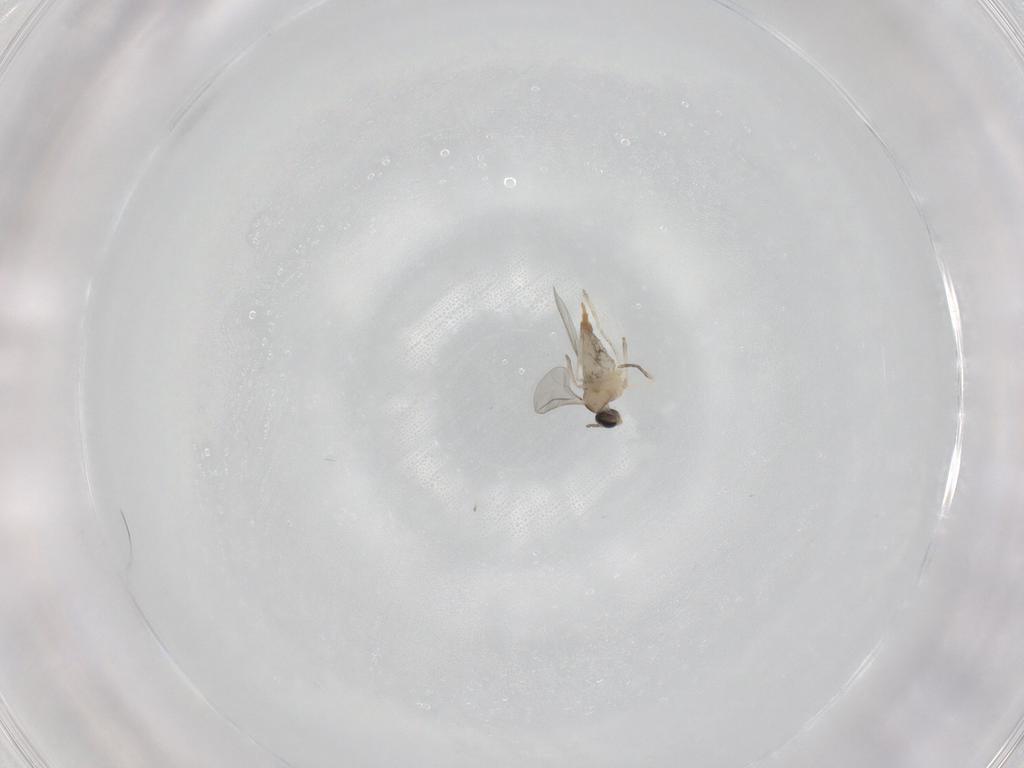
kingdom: Animalia
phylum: Arthropoda
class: Insecta
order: Diptera
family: Cecidomyiidae
